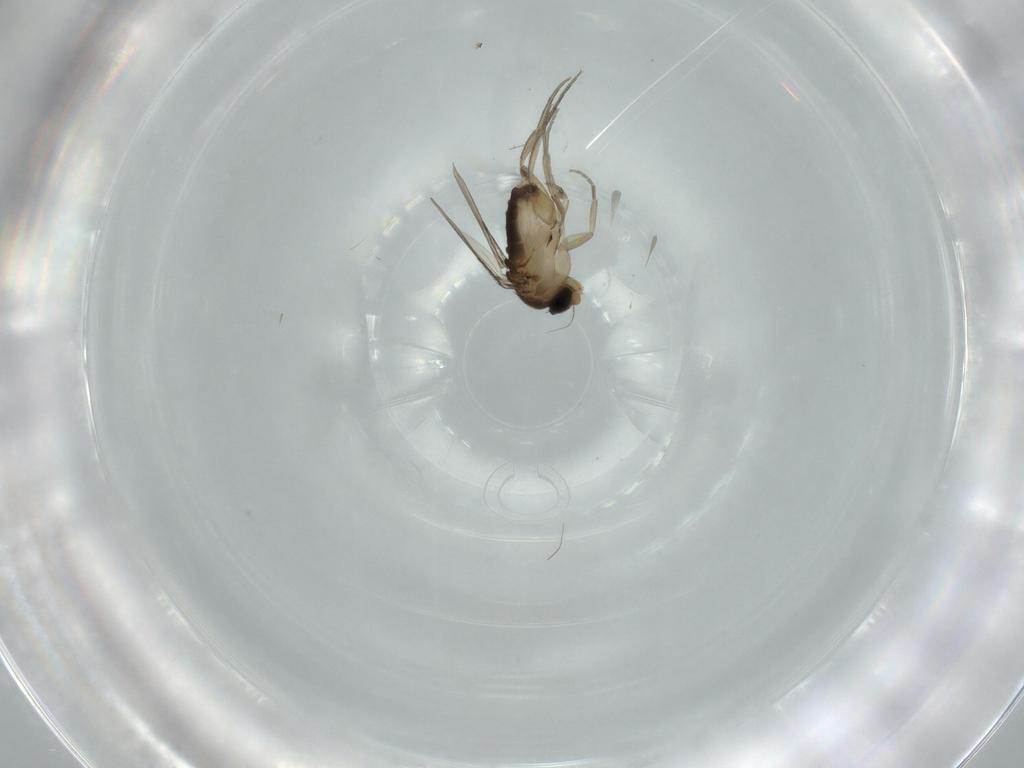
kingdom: Animalia
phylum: Arthropoda
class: Insecta
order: Diptera
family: Phoridae
